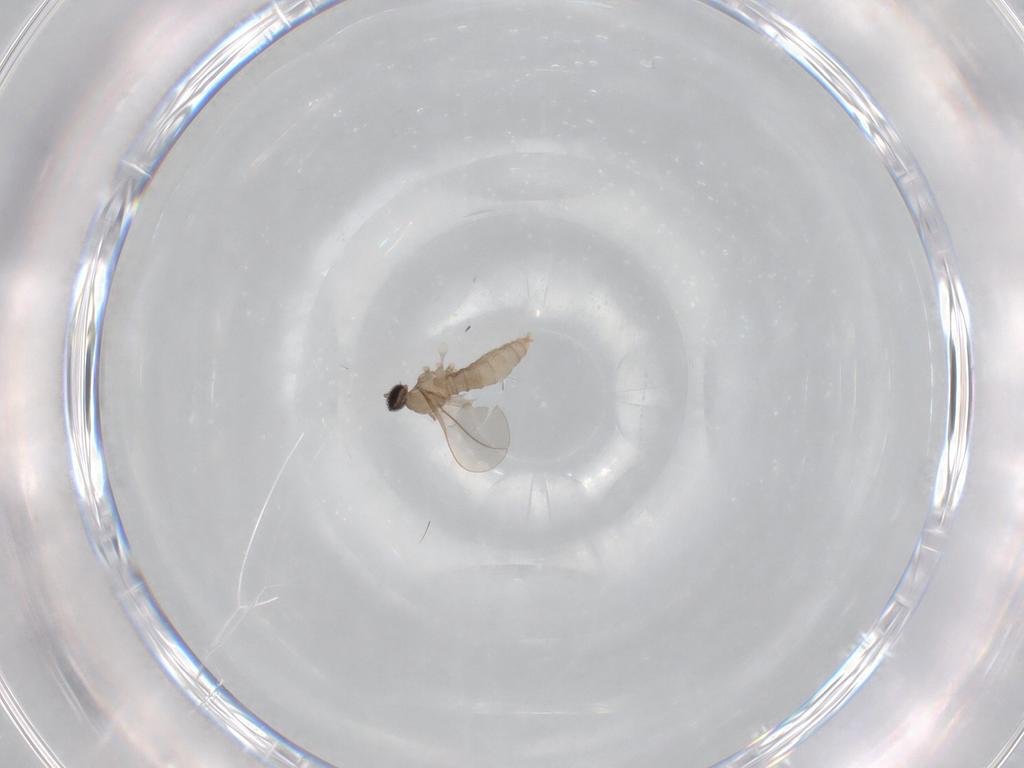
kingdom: Animalia
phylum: Arthropoda
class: Insecta
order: Diptera
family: Cecidomyiidae
